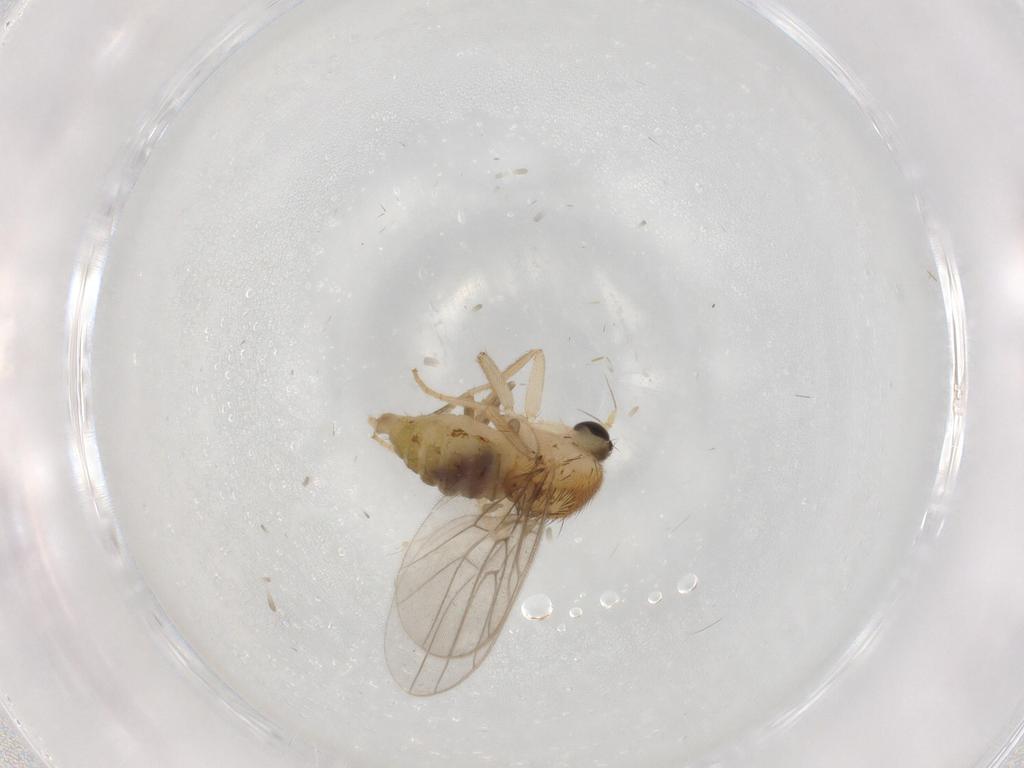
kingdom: Animalia
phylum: Arthropoda
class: Insecta
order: Diptera
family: Hybotidae
